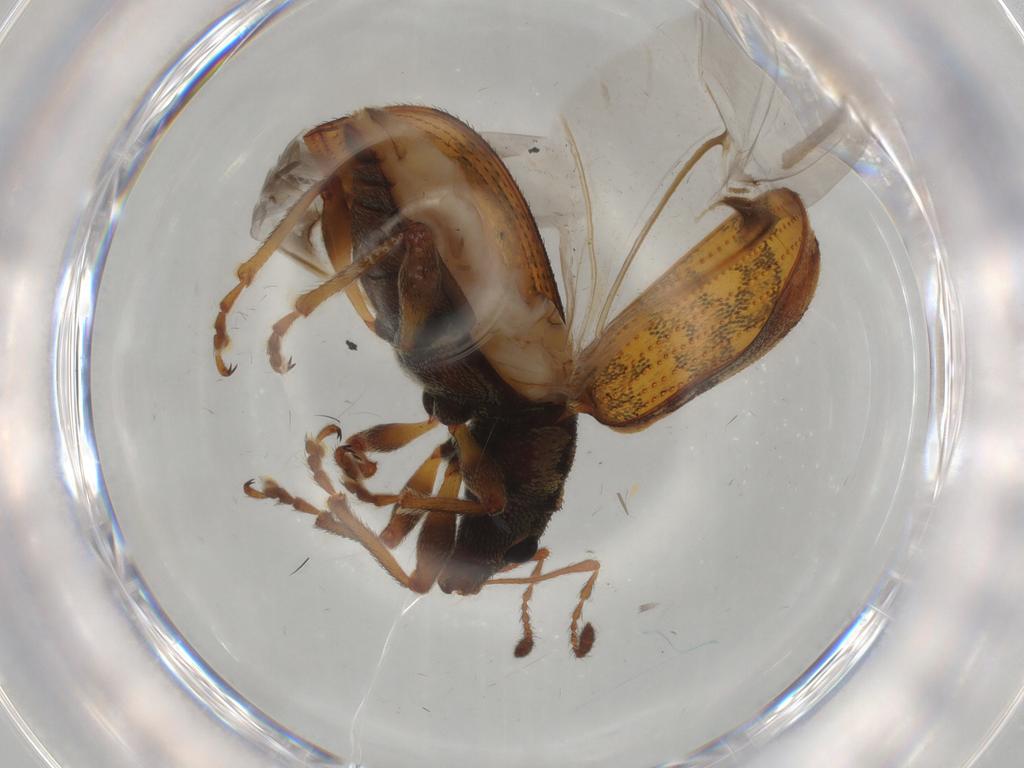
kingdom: Animalia
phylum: Arthropoda
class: Insecta
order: Coleoptera
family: Curculionidae
